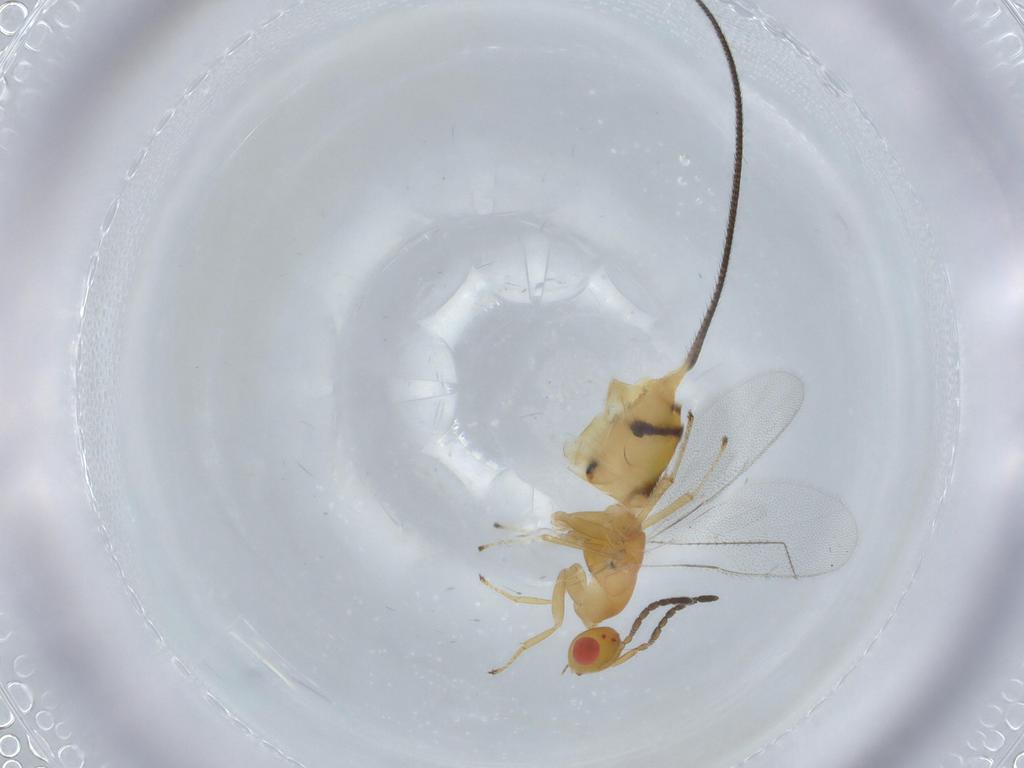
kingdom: Animalia
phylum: Arthropoda
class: Insecta
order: Hymenoptera
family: Pteromalidae
